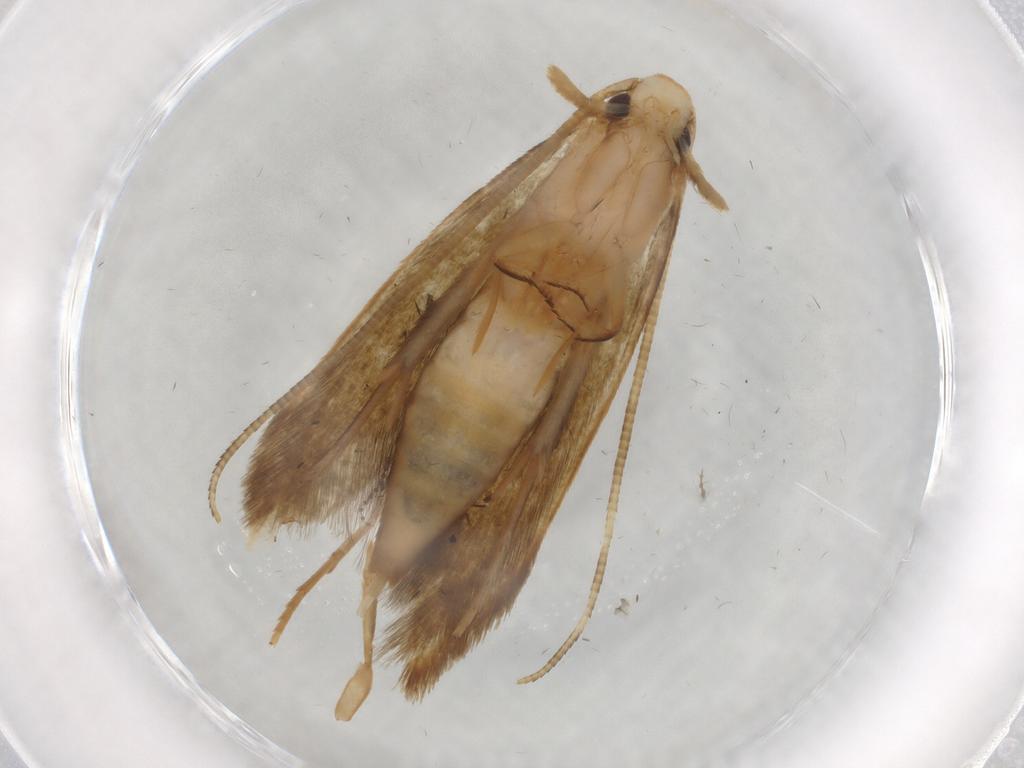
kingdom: Animalia
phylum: Arthropoda
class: Insecta
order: Lepidoptera
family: Tineidae
